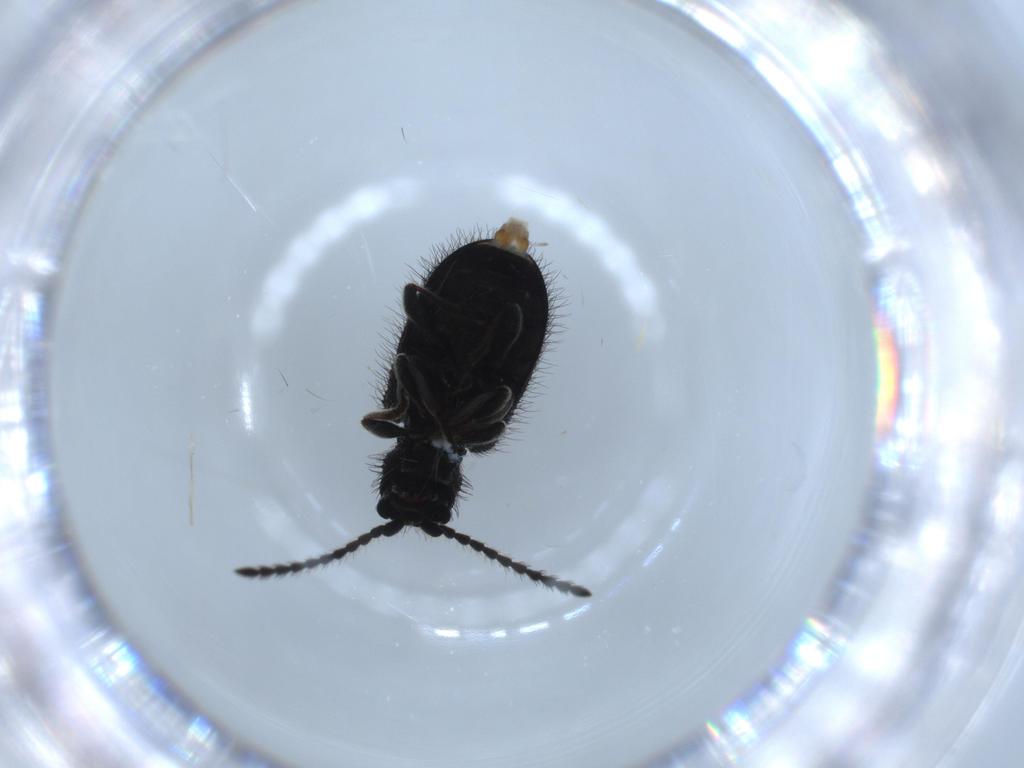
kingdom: Animalia
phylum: Arthropoda
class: Insecta
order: Coleoptera
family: Ptinidae
